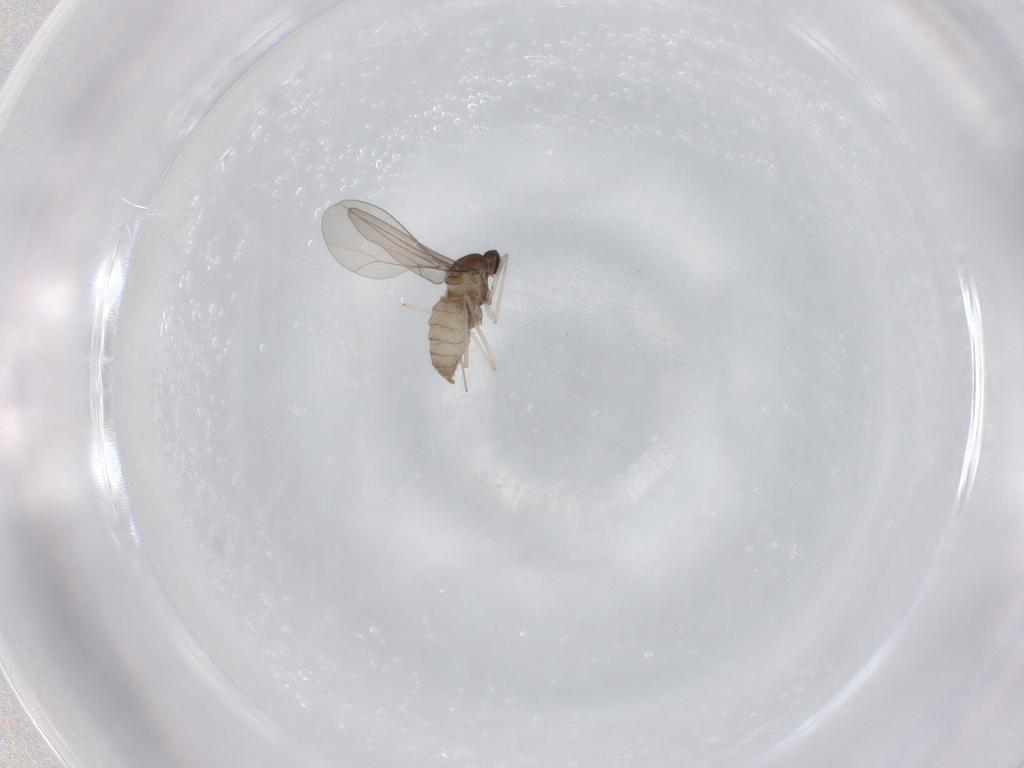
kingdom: Animalia
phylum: Arthropoda
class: Insecta
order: Diptera
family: Cecidomyiidae
